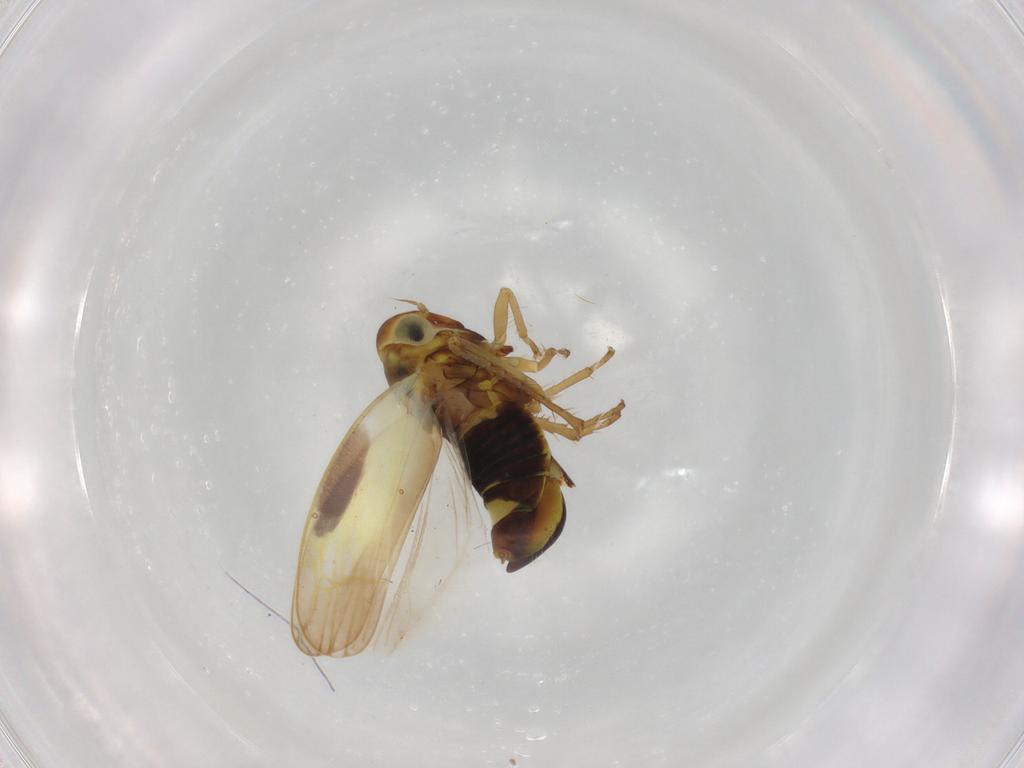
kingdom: Animalia
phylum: Arthropoda
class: Insecta
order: Hemiptera
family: Cicadellidae
